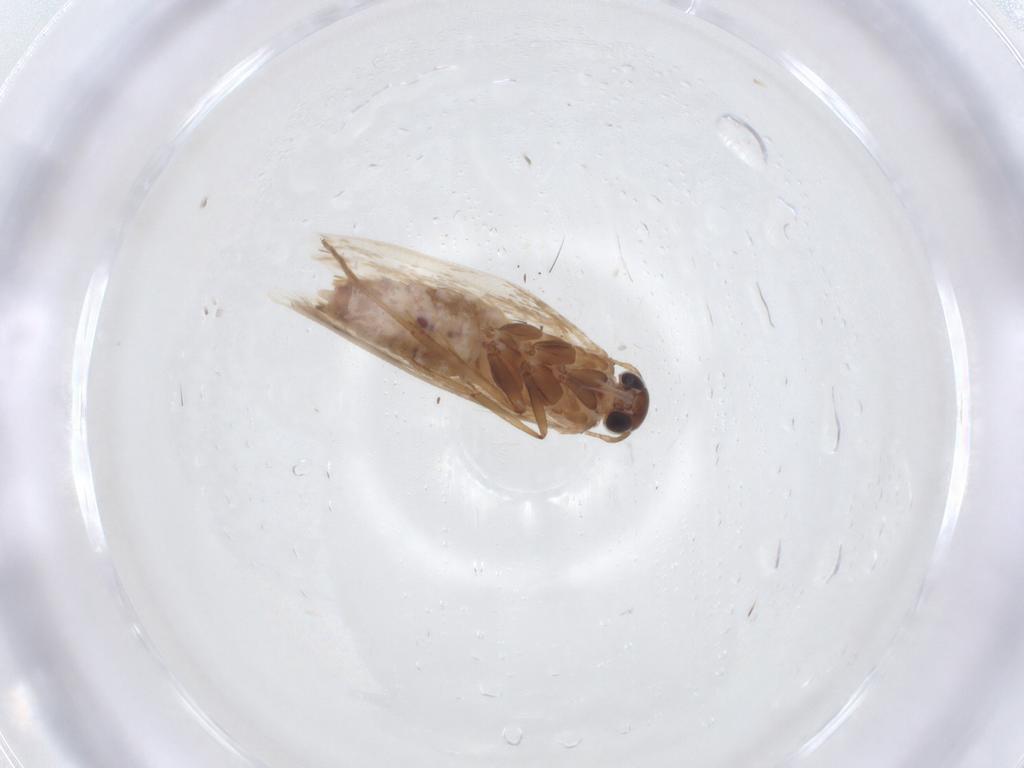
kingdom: Animalia
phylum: Arthropoda
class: Insecta
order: Lepidoptera
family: Cosmopterigidae
